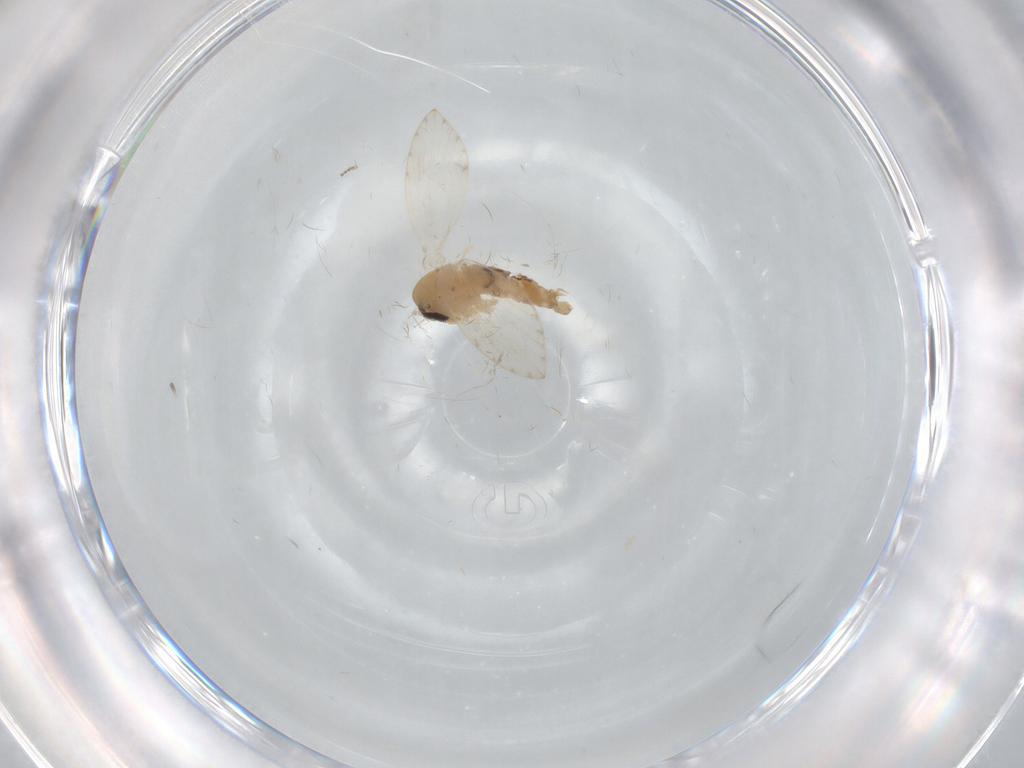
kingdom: Animalia
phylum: Arthropoda
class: Insecta
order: Diptera
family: Psychodidae
